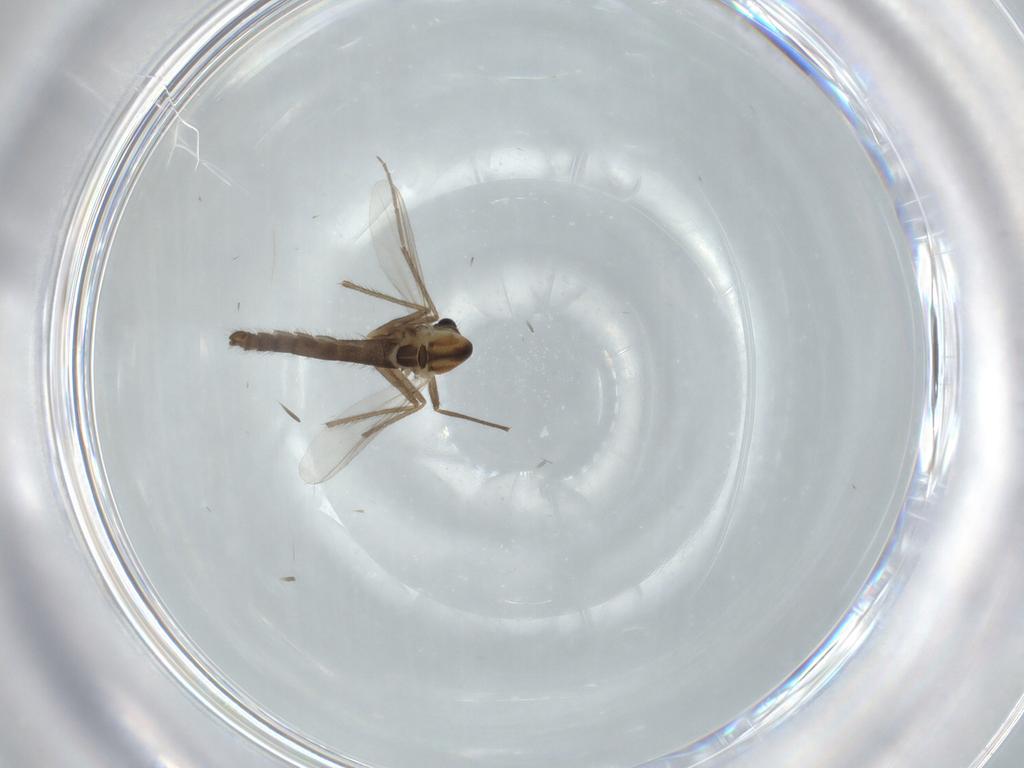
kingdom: Animalia
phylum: Arthropoda
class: Insecta
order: Diptera
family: Chironomidae
